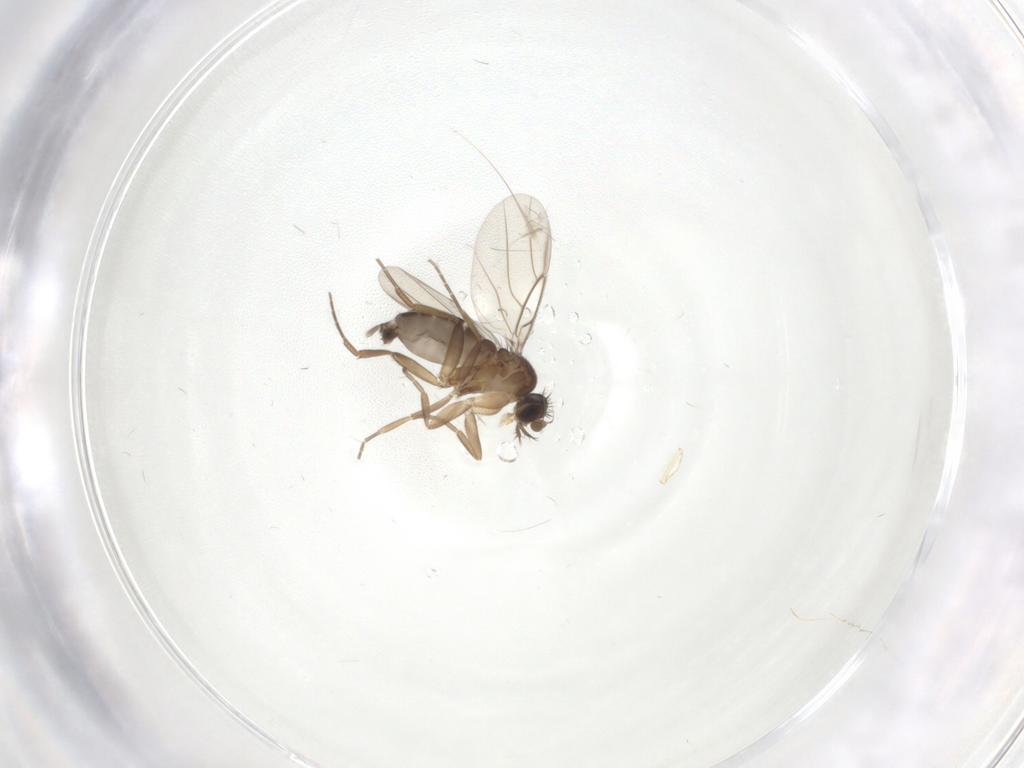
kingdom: Animalia
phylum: Arthropoda
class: Insecta
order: Diptera
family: Phoridae
